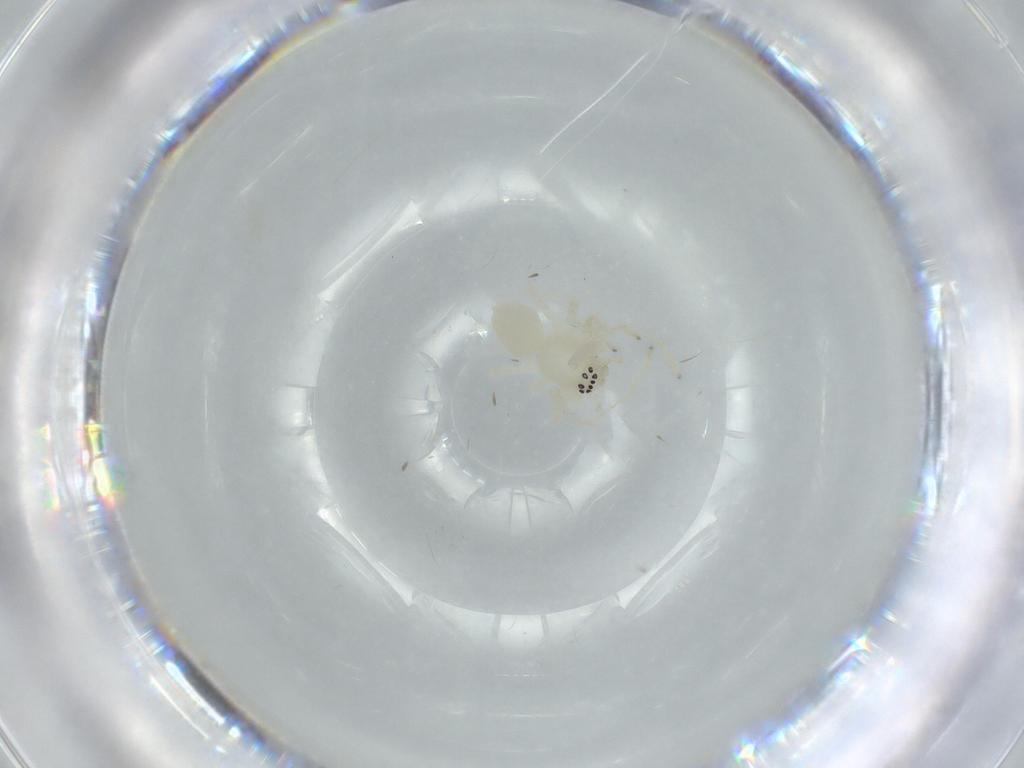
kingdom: Animalia
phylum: Arthropoda
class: Arachnida
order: Araneae
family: Anyphaenidae
